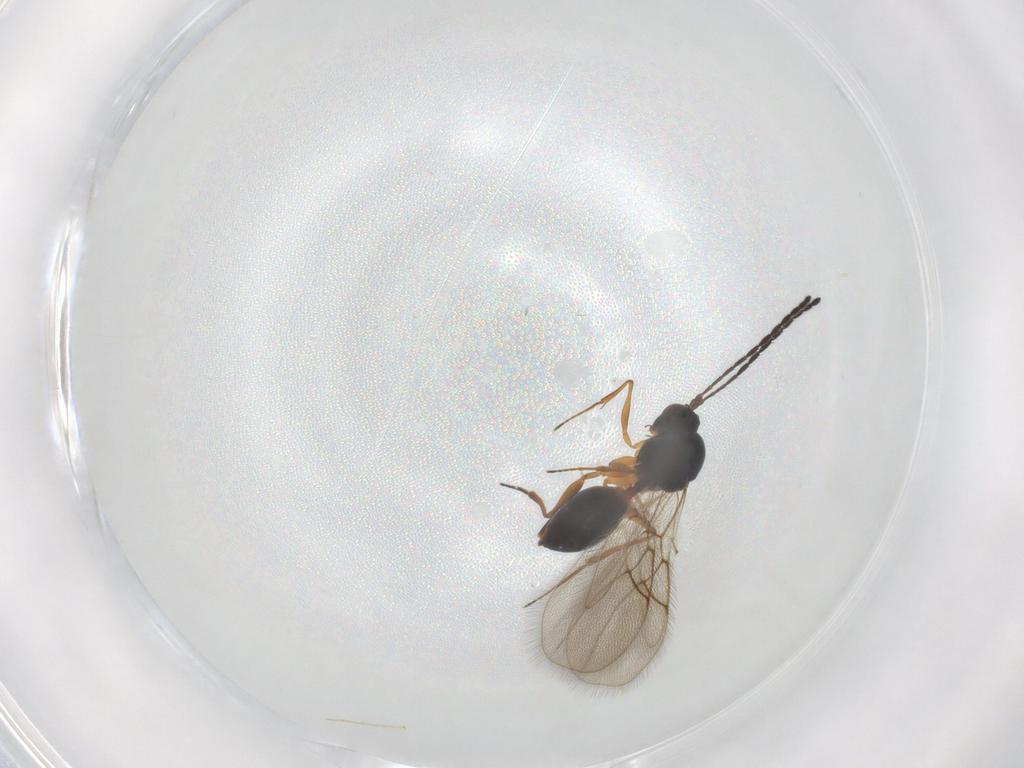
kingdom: Animalia
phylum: Arthropoda
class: Insecta
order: Hymenoptera
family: Figitidae
